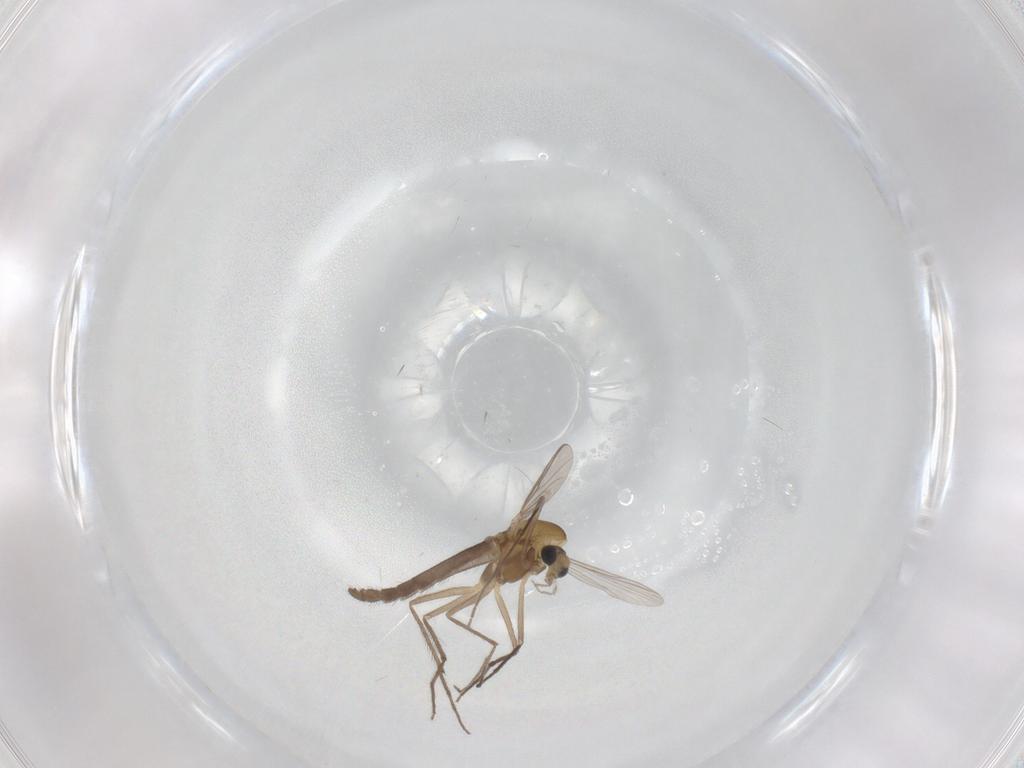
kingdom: Animalia
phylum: Arthropoda
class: Insecta
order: Diptera
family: Chironomidae
